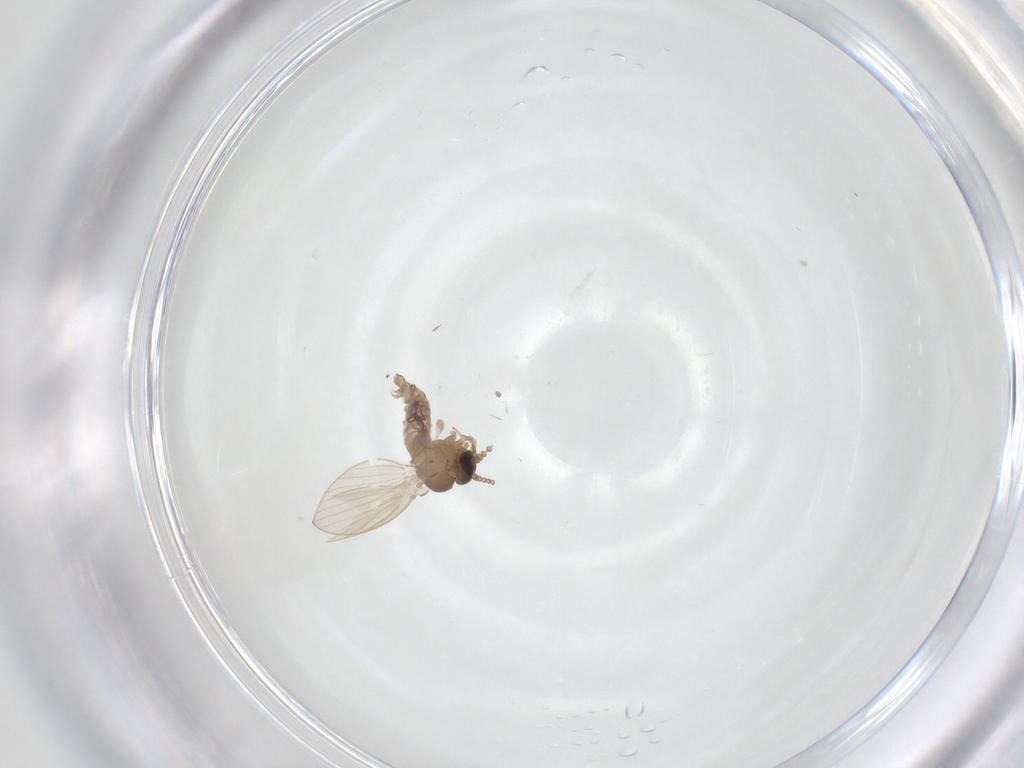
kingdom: Animalia
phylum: Arthropoda
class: Insecta
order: Diptera
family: Psychodidae
